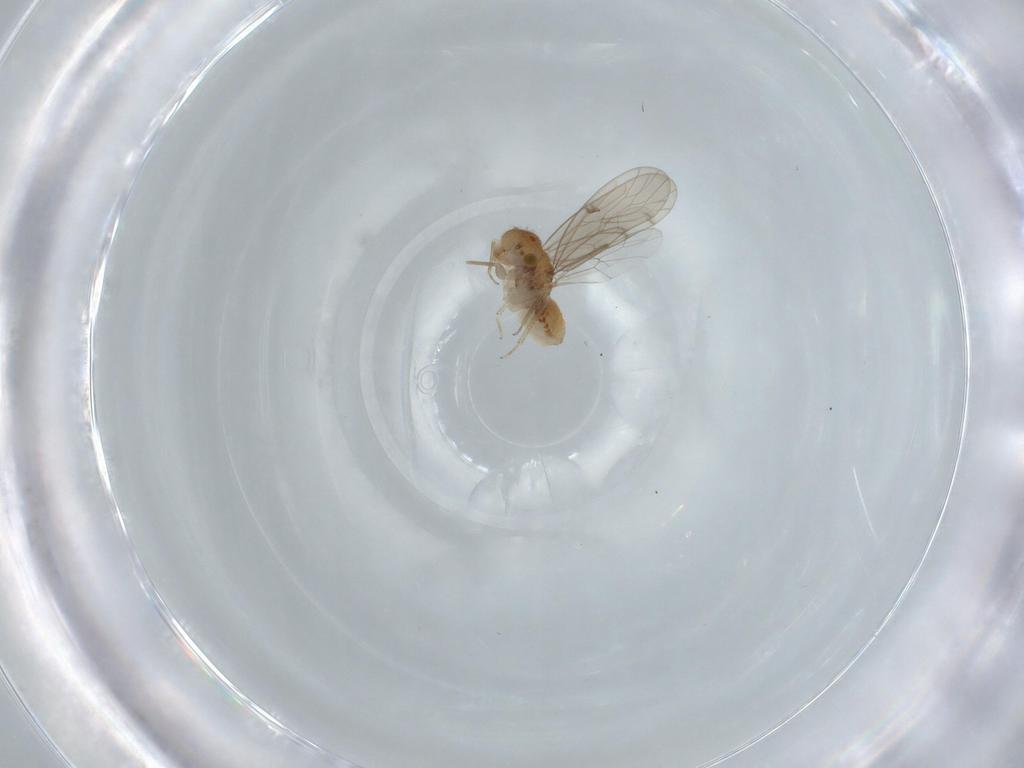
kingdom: Animalia
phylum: Arthropoda
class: Insecta
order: Psocodea
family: Ectopsocidae
